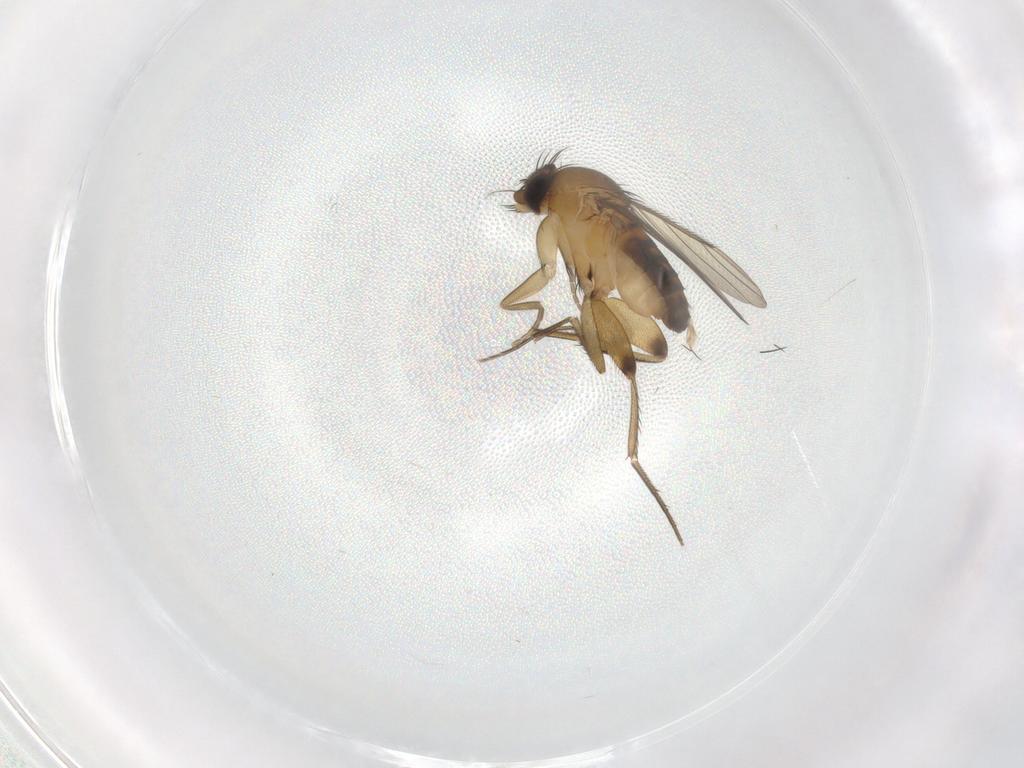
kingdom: Animalia
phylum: Arthropoda
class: Insecta
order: Diptera
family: Phoridae
